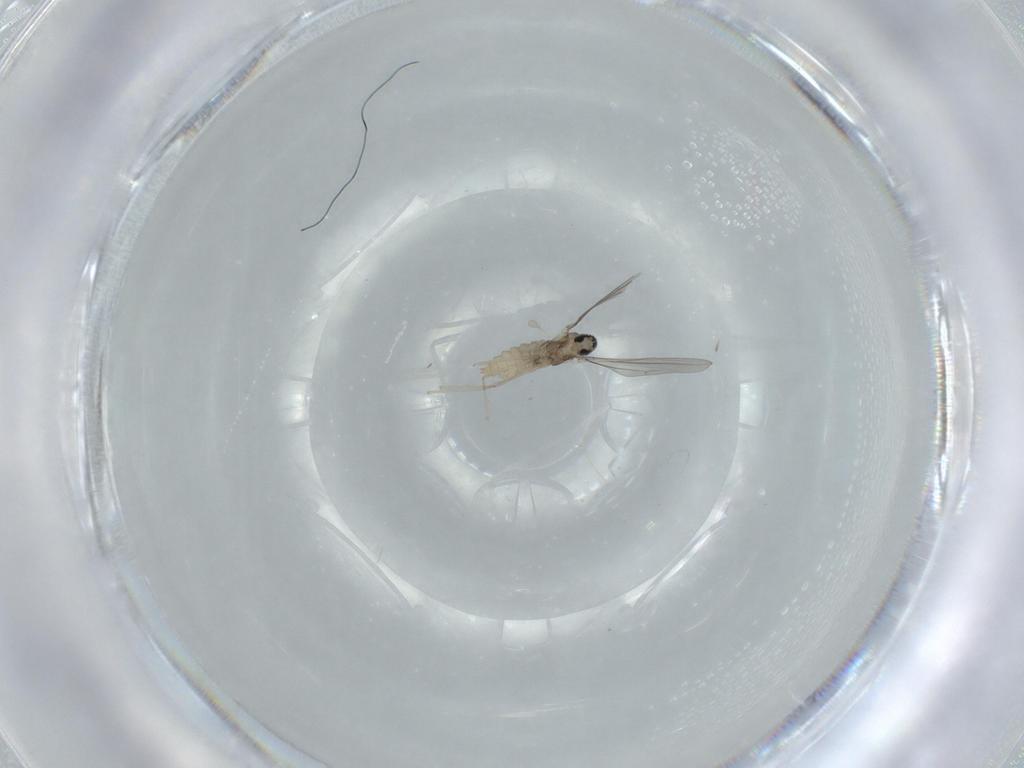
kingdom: Animalia
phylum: Arthropoda
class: Insecta
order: Diptera
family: Cecidomyiidae
